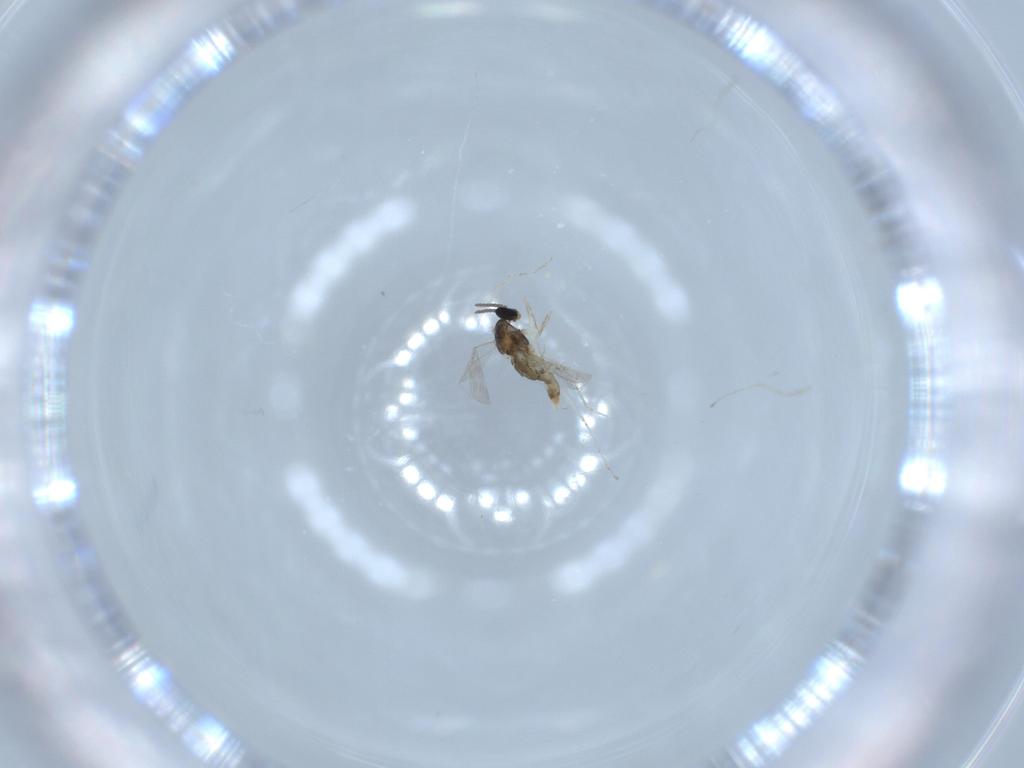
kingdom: Animalia
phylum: Arthropoda
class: Insecta
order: Diptera
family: Cecidomyiidae
